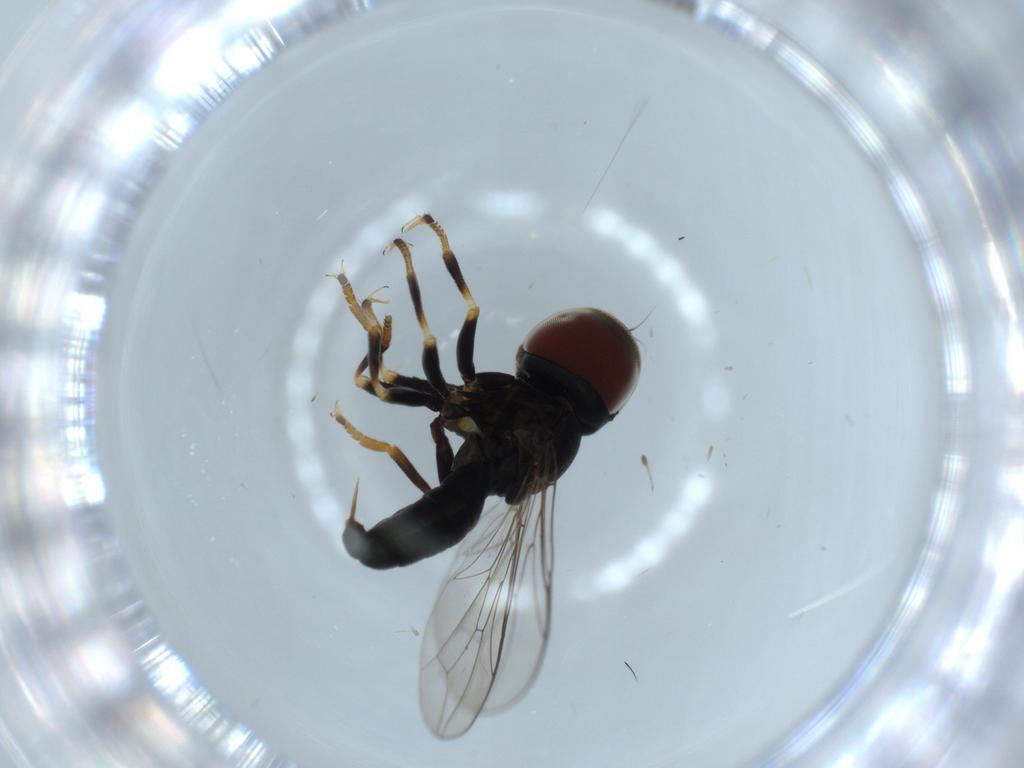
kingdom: Animalia
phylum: Arthropoda
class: Insecta
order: Diptera
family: Pipunculidae
